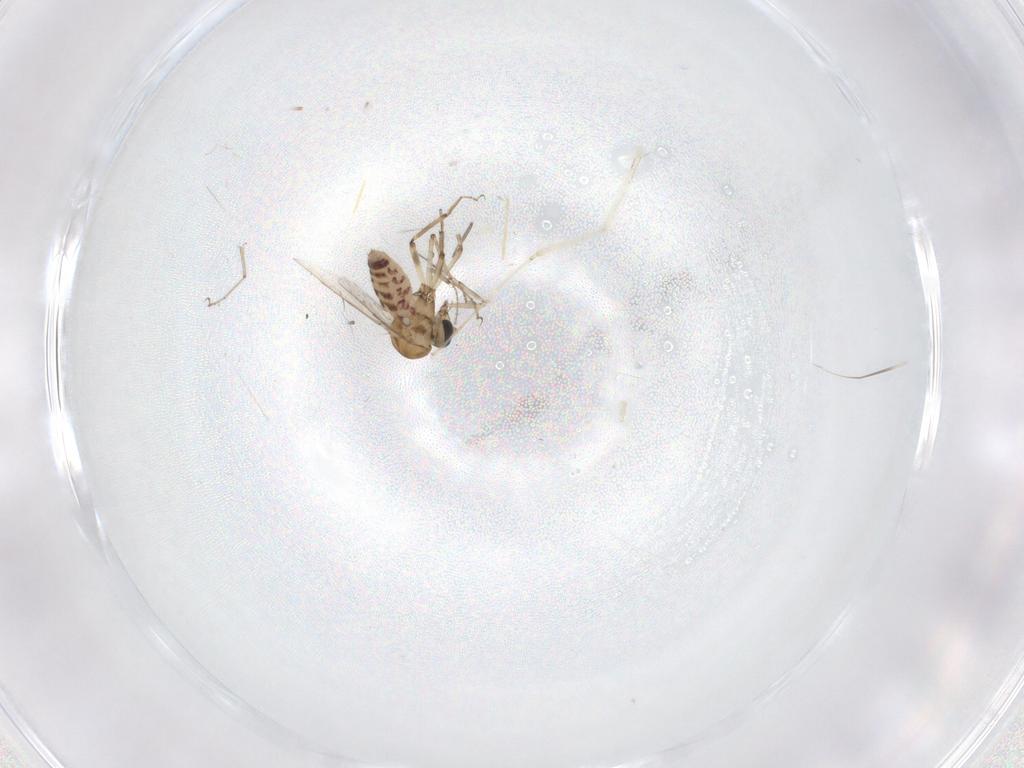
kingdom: Animalia
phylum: Arthropoda
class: Insecta
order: Diptera
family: Ceratopogonidae
